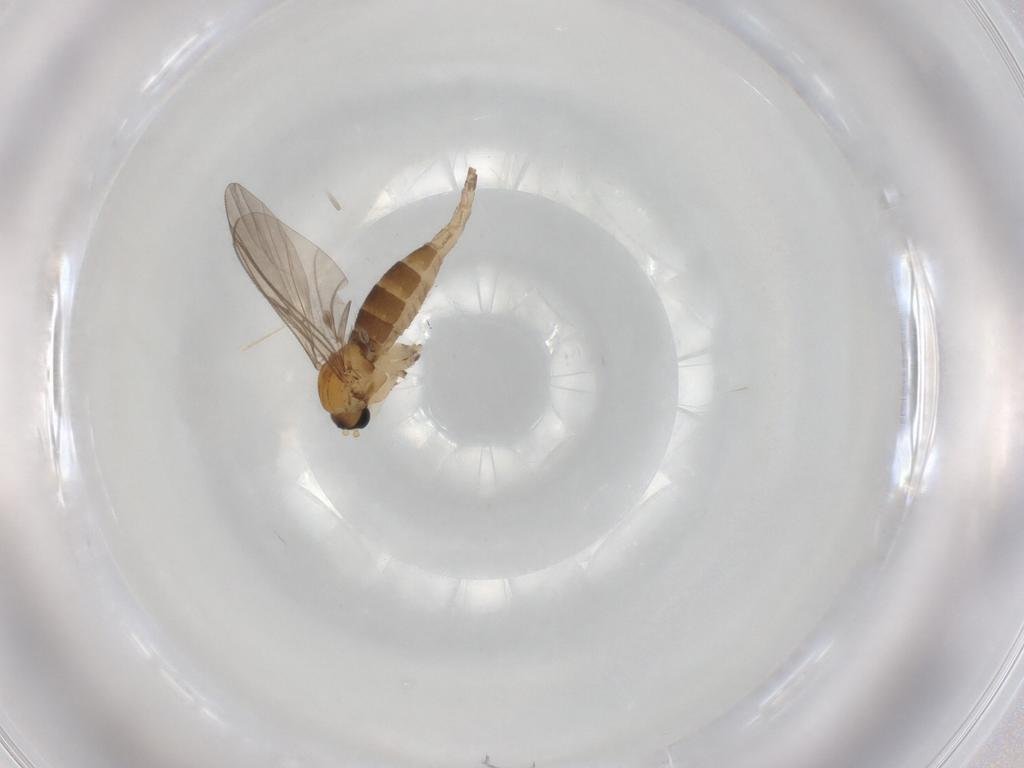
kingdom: Animalia
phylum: Arthropoda
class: Insecta
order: Diptera
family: Sciaridae
